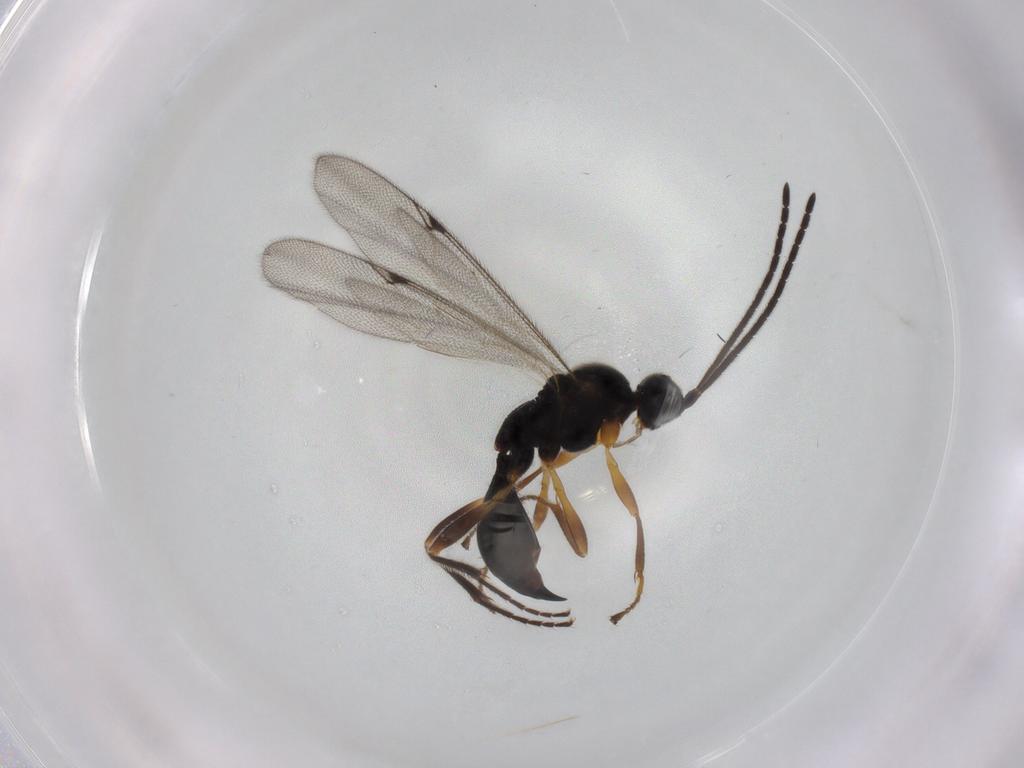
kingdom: Animalia
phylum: Arthropoda
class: Insecta
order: Hymenoptera
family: Proctotrupidae
